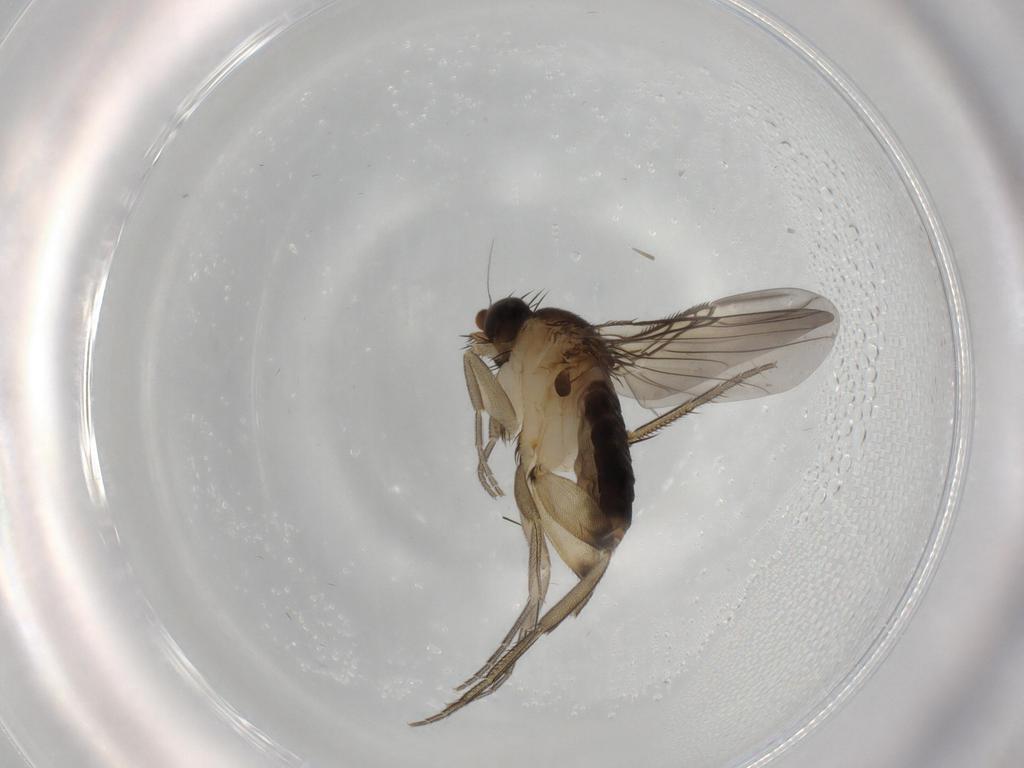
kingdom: Animalia
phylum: Arthropoda
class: Insecta
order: Diptera
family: Phoridae
